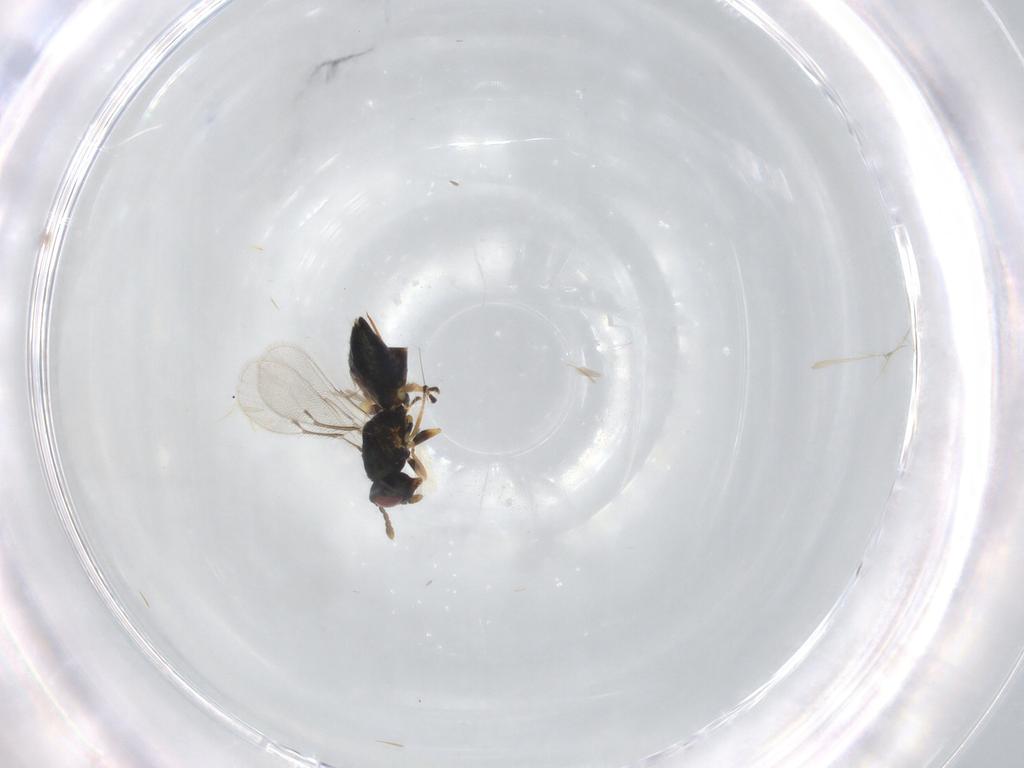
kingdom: Animalia
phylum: Arthropoda
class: Insecta
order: Hymenoptera
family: Eulophidae
